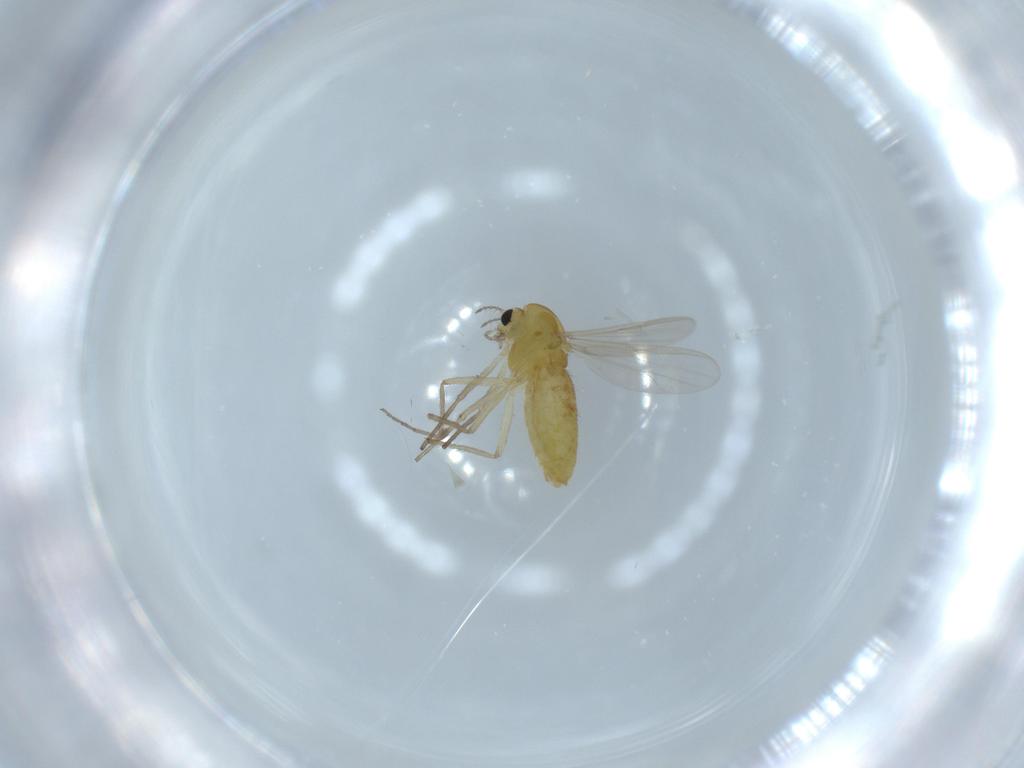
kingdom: Animalia
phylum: Arthropoda
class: Insecta
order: Diptera
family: Chironomidae
